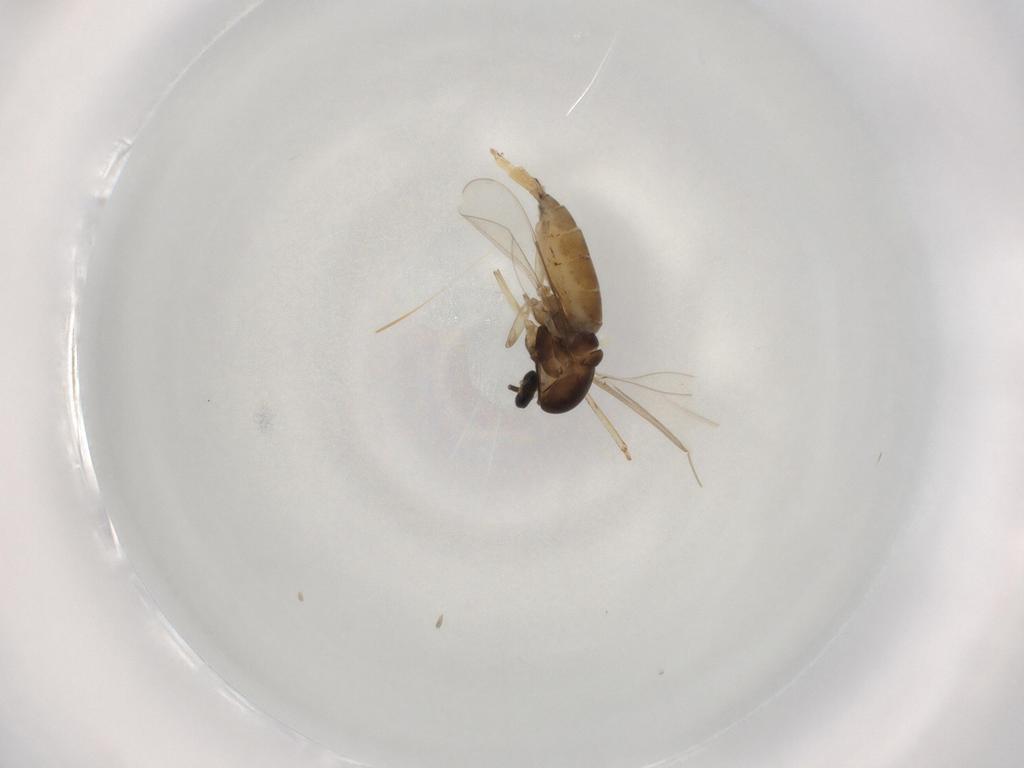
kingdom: Animalia
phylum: Arthropoda
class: Insecta
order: Diptera
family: Cecidomyiidae
